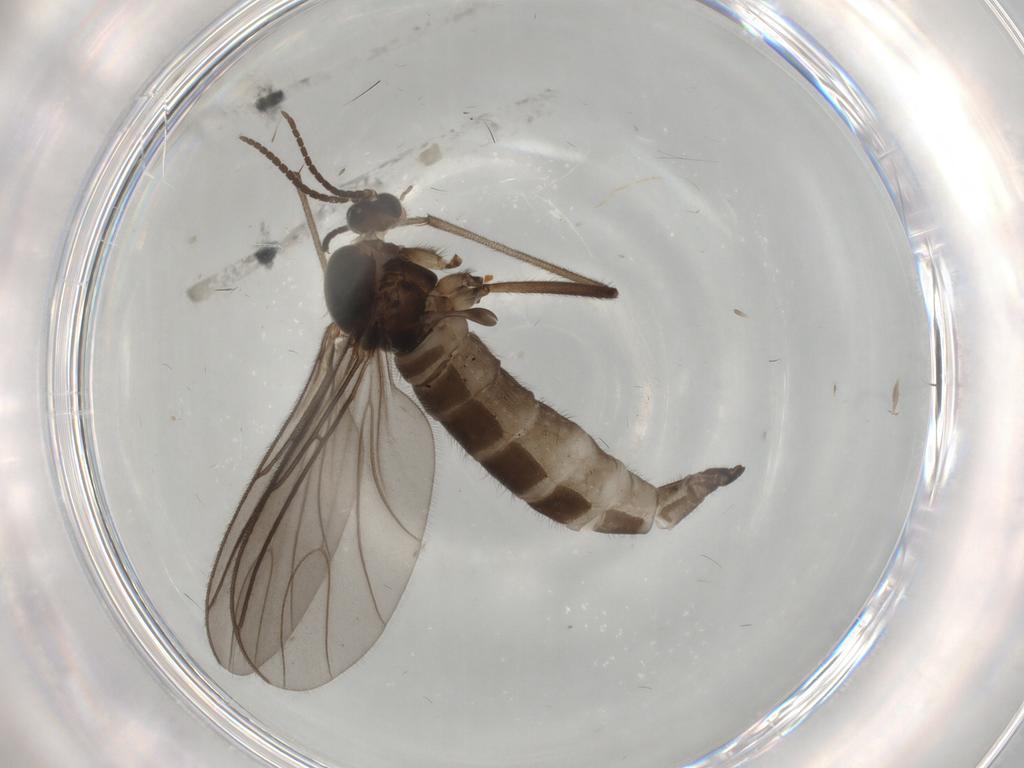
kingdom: Animalia
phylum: Arthropoda
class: Insecta
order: Diptera
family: Sciaridae
